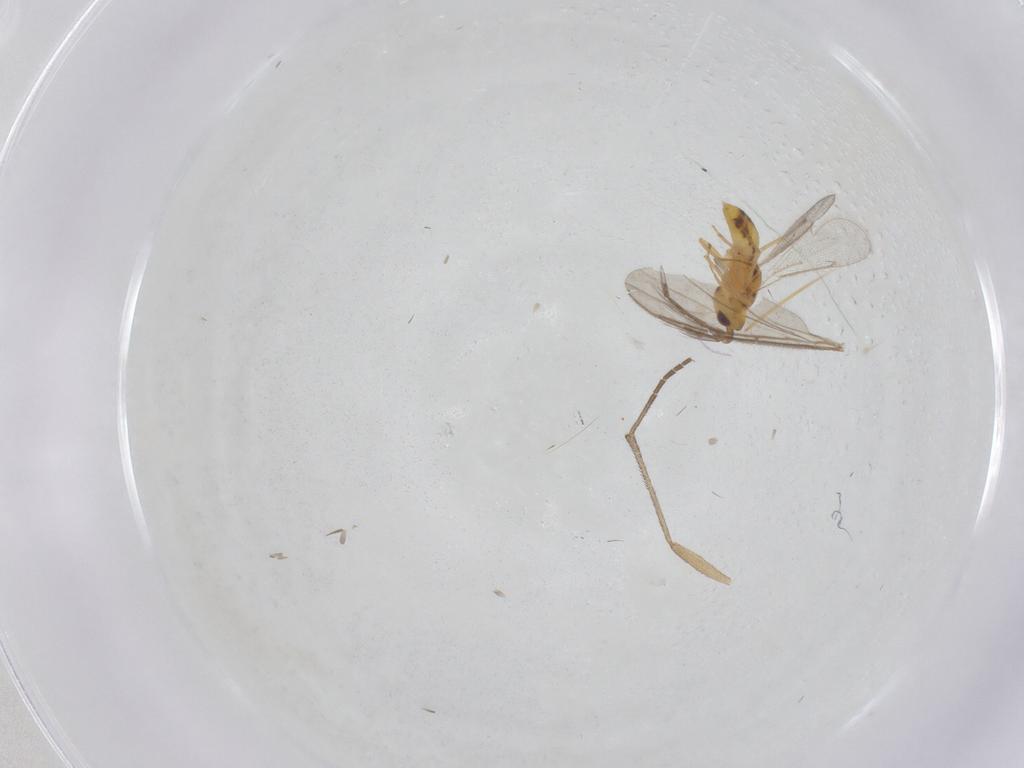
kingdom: Animalia
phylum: Arthropoda
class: Insecta
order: Hymenoptera
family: Eulophidae
